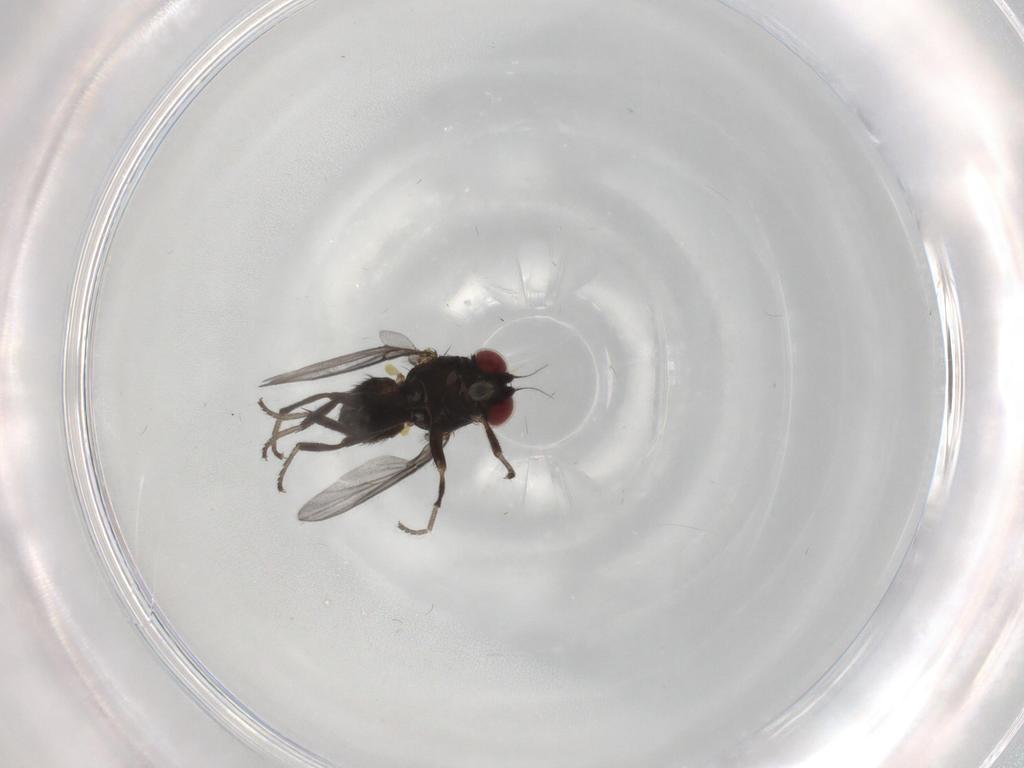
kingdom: Animalia
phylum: Arthropoda
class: Insecta
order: Diptera
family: Agromyzidae
